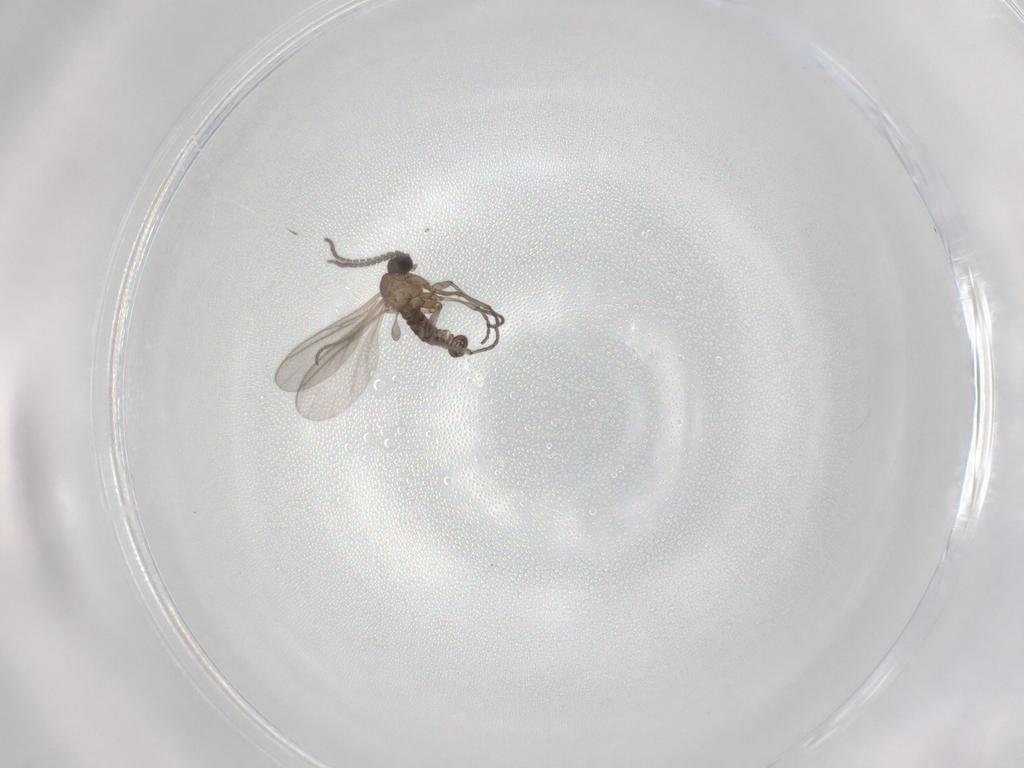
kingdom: Animalia
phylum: Arthropoda
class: Insecta
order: Diptera
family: Sciaridae
